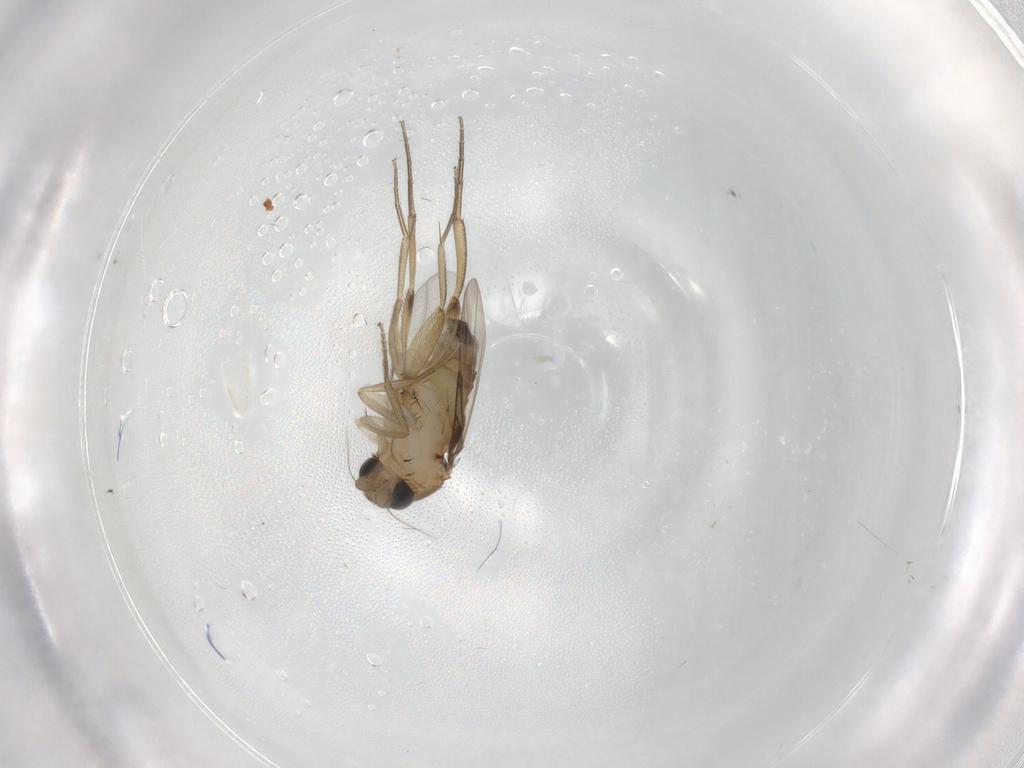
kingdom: Animalia
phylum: Arthropoda
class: Insecta
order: Diptera
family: Phoridae
